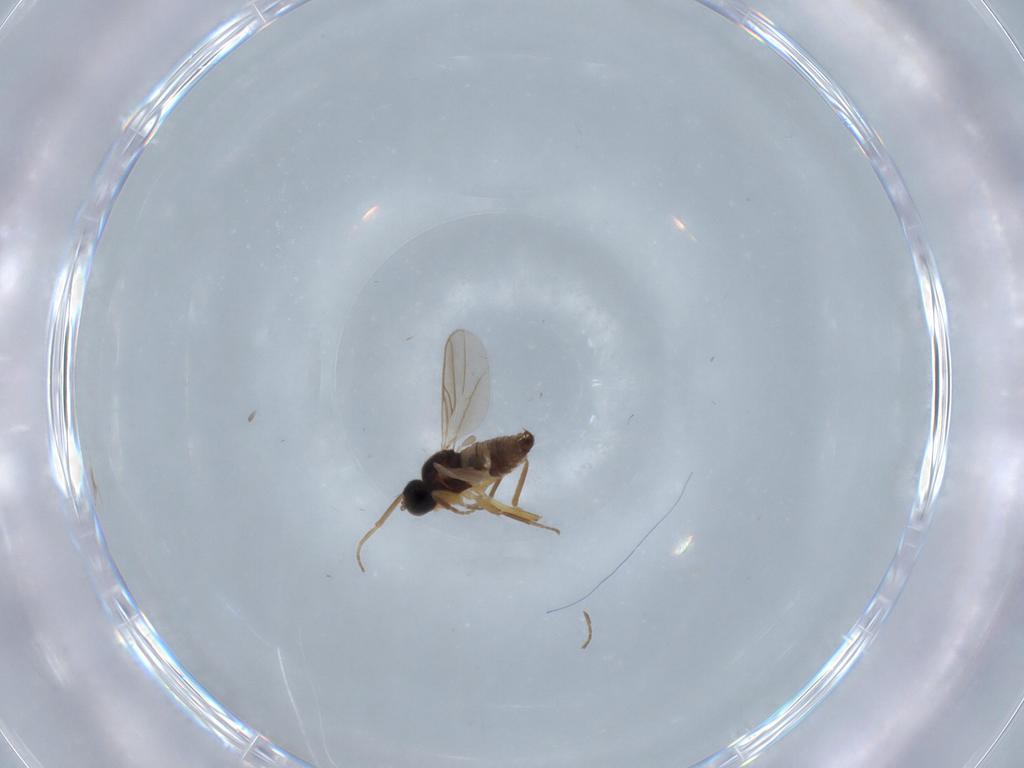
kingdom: Animalia
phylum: Arthropoda
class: Insecta
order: Diptera
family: Hybotidae
